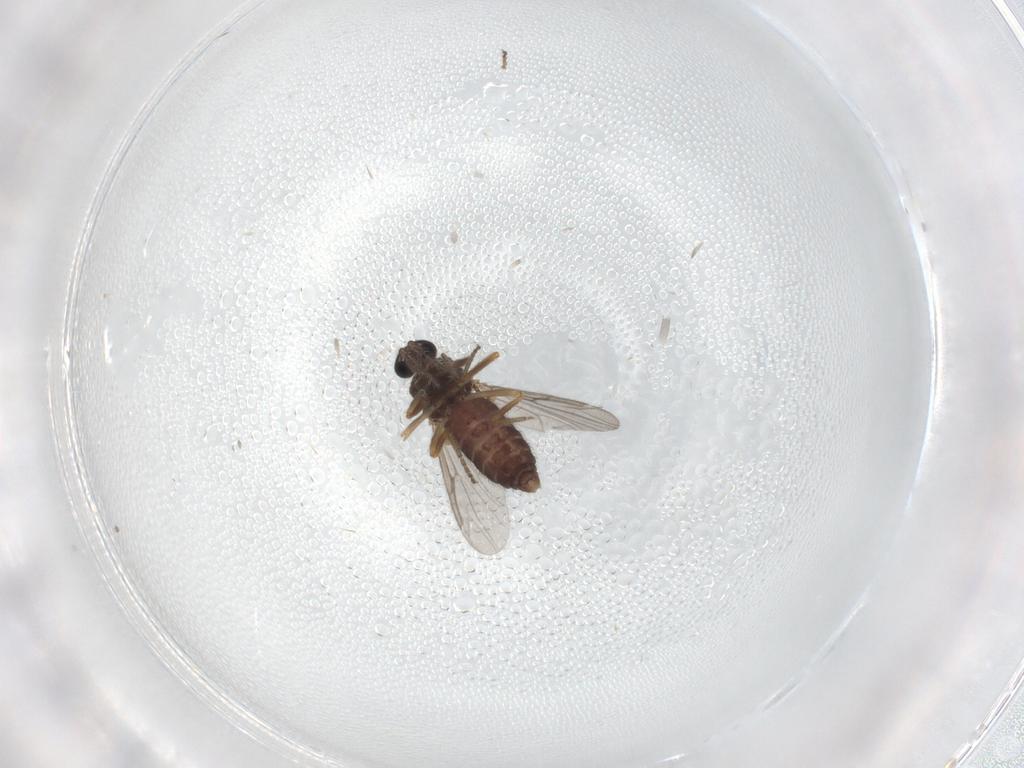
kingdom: Animalia
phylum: Arthropoda
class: Insecta
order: Diptera
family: Ceratopogonidae
